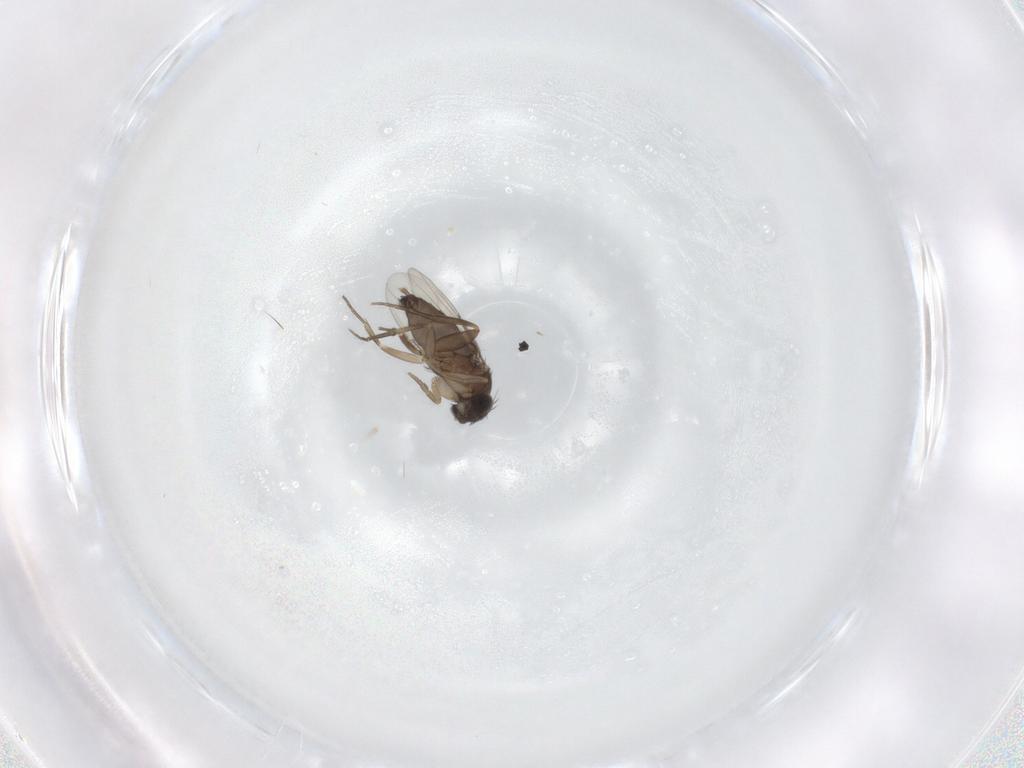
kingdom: Animalia
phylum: Arthropoda
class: Insecta
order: Diptera
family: Phoridae
